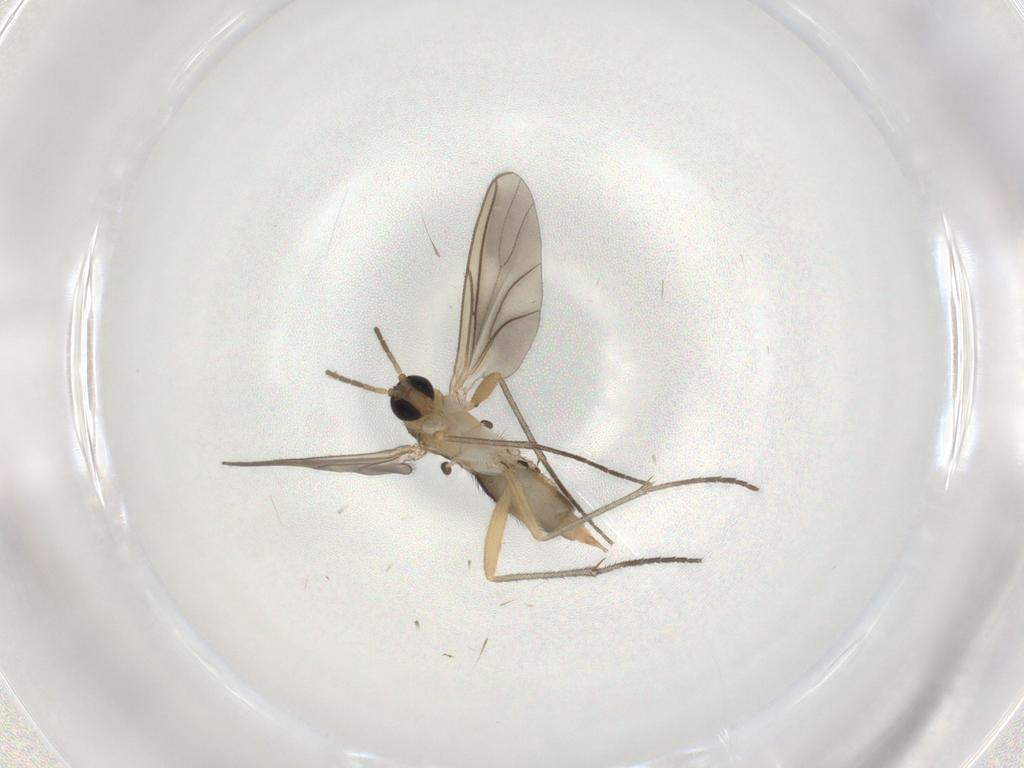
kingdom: Animalia
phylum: Arthropoda
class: Insecta
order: Diptera
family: Sciaridae
